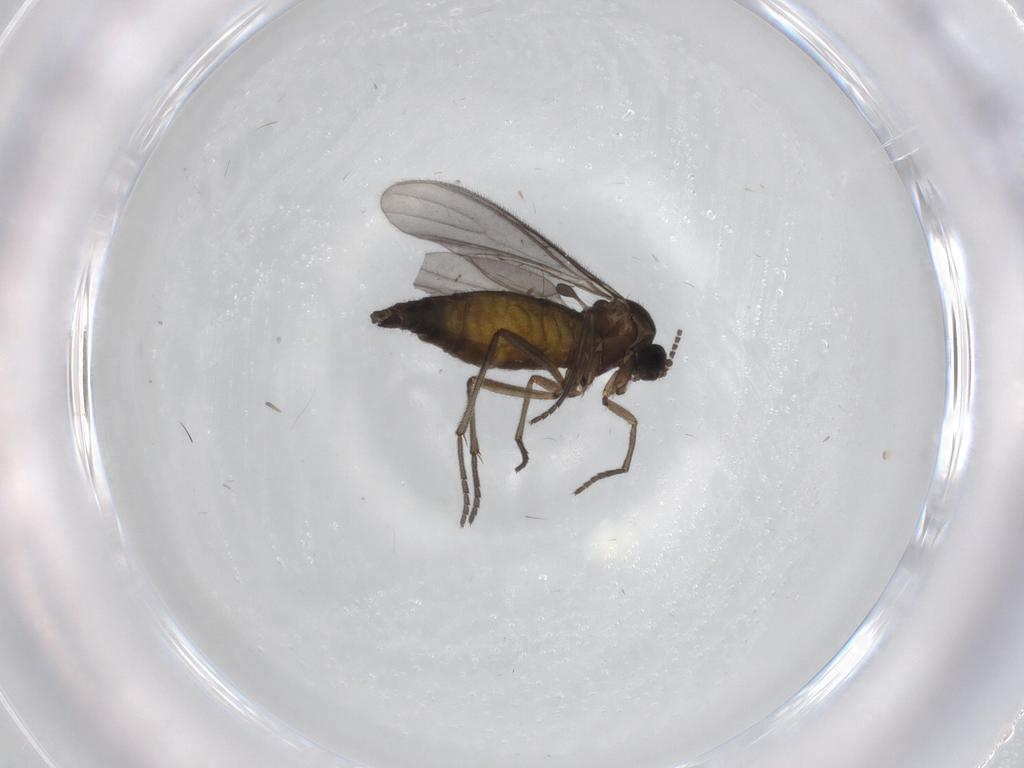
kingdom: Animalia
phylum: Arthropoda
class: Insecta
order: Diptera
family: Sciaridae
